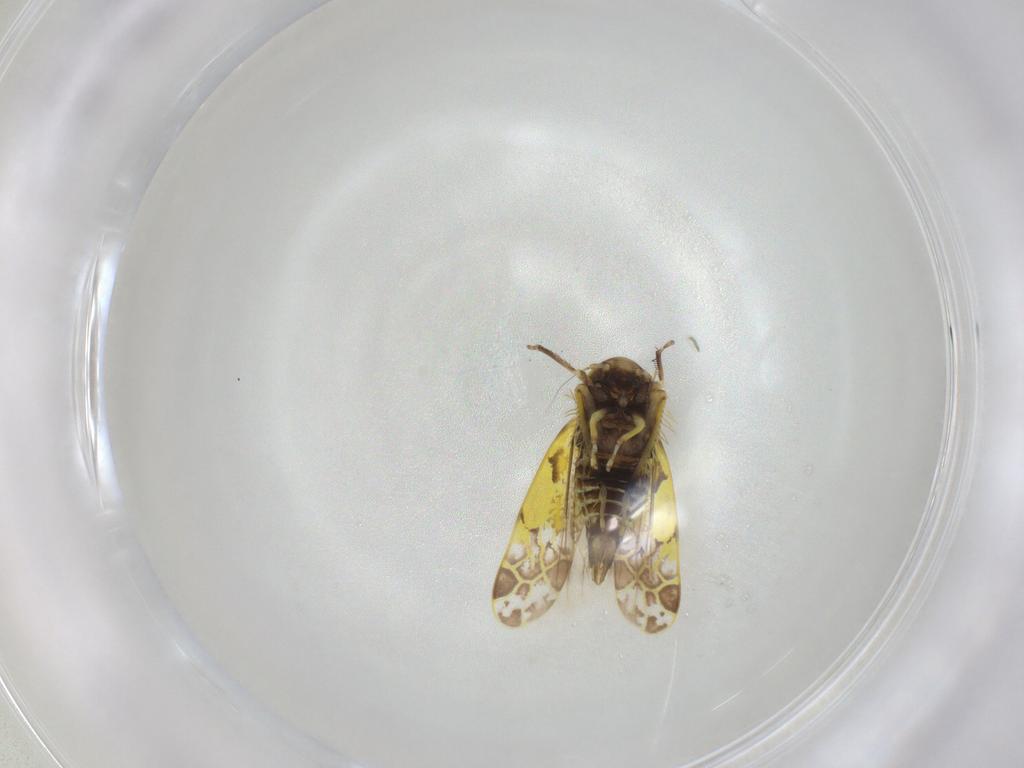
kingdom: Animalia
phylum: Arthropoda
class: Insecta
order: Hemiptera
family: Cicadellidae
